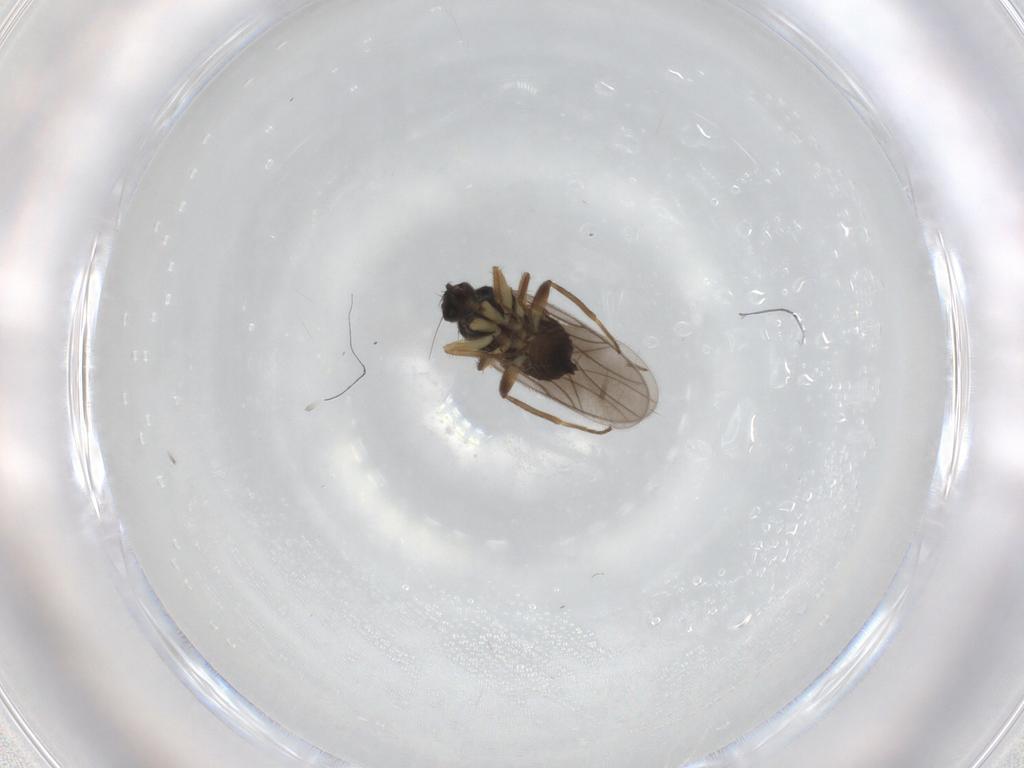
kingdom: Animalia
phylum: Arthropoda
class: Insecta
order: Diptera
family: Hybotidae
